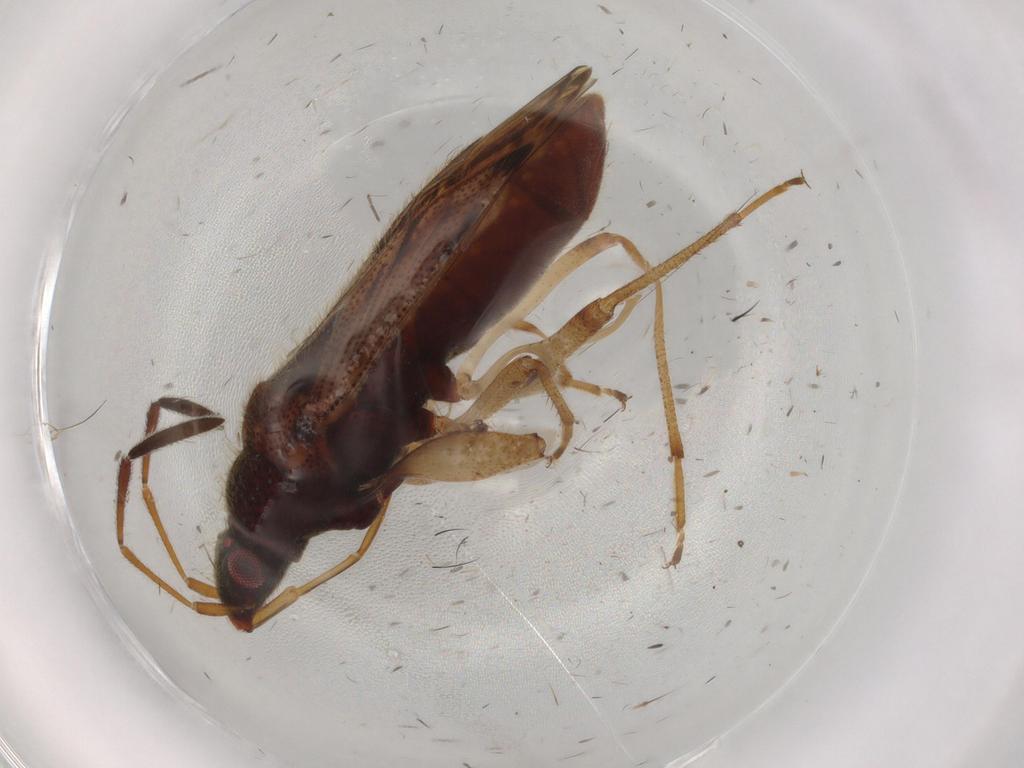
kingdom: Animalia
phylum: Arthropoda
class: Insecta
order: Hemiptera
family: Rhyparochromidae
